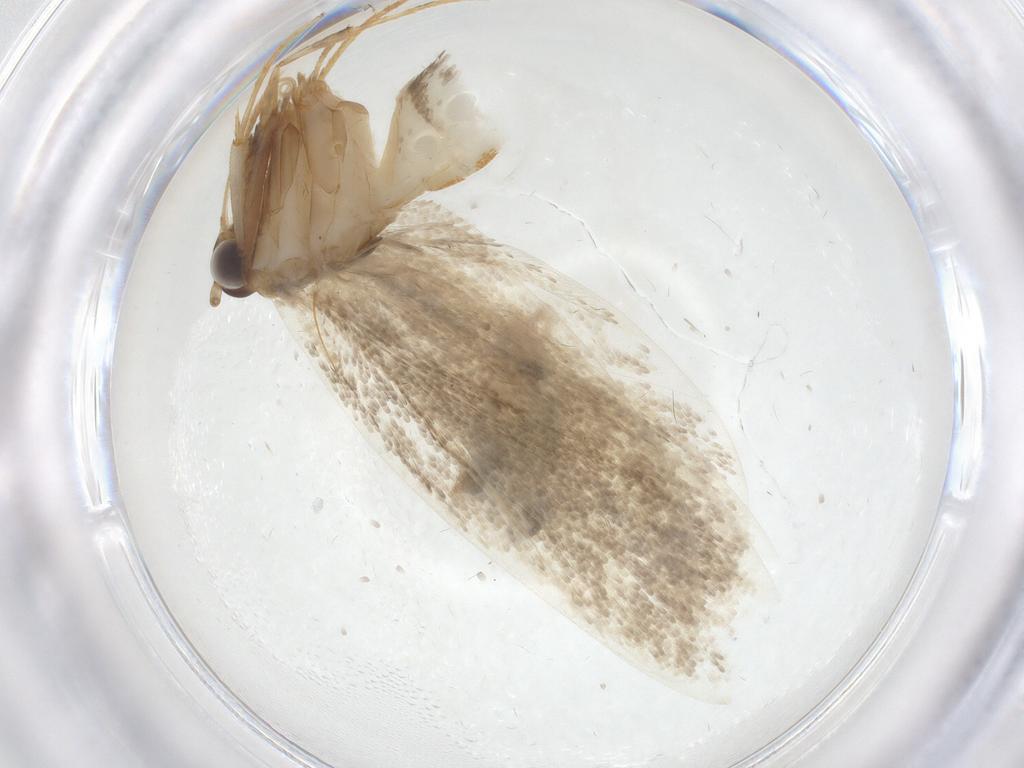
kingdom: Animalia
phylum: Arthropoda
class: Insecta
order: Lepidoptera
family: Oecophoridae
